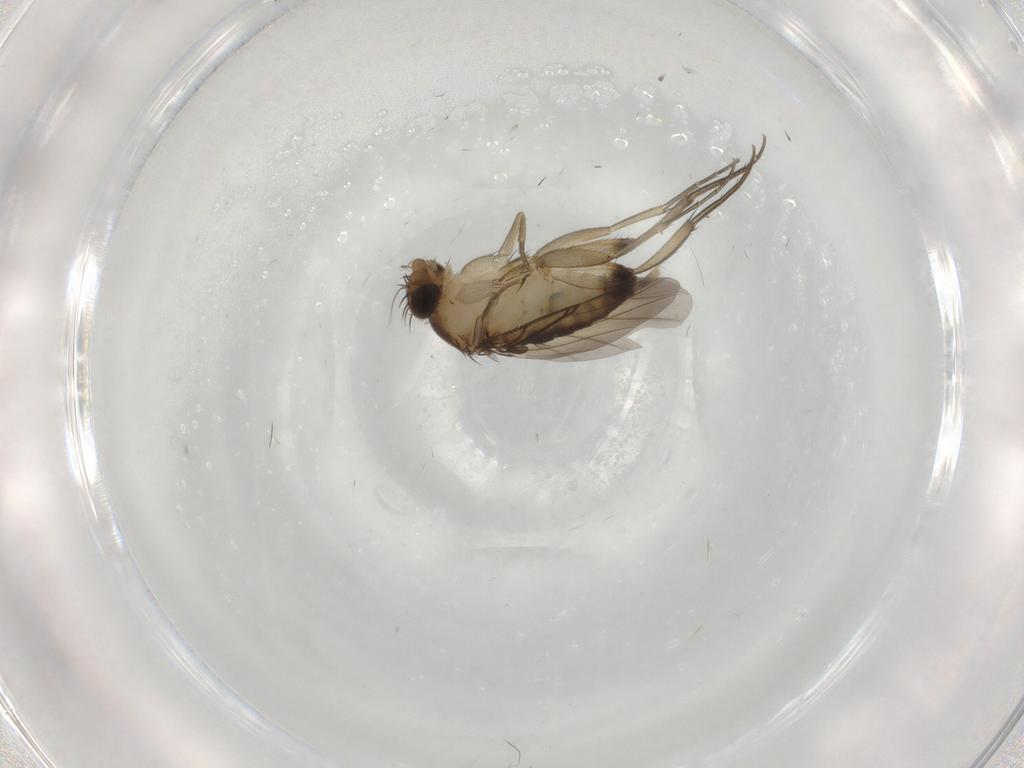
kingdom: Animalia
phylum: Arthropoda
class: Insecta
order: Diptera
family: Phoridae
